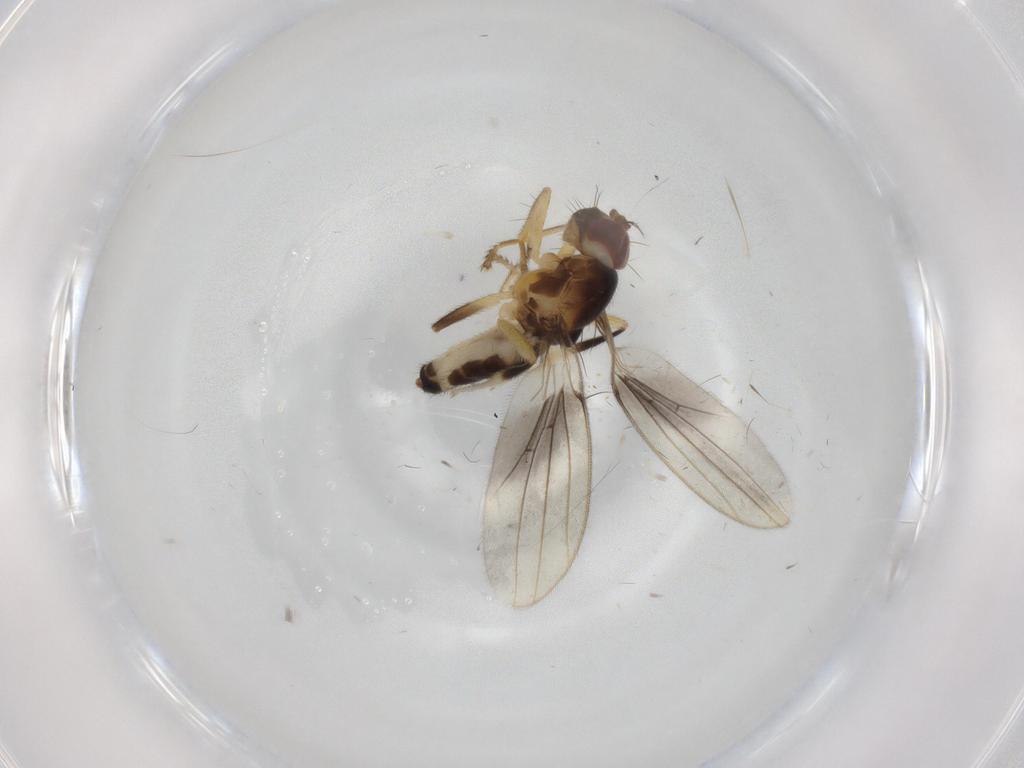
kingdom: Animalia
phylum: Arthropoda
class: Insecta
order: Diptera
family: Periscelididae
